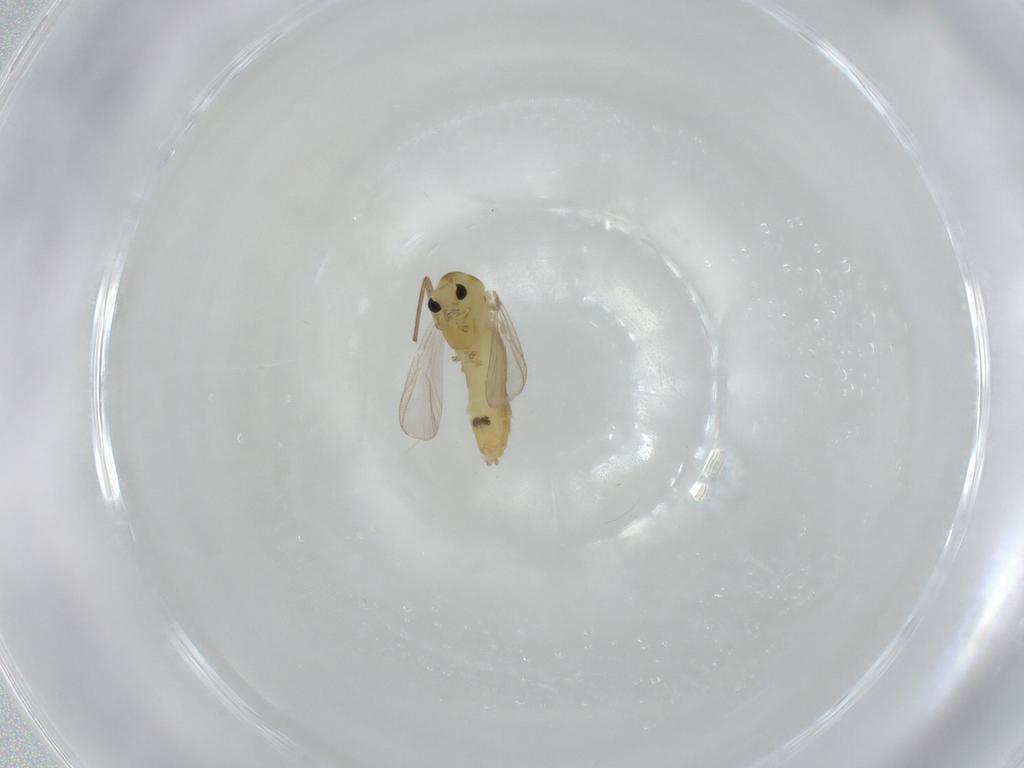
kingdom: Animalia
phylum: Arthropoda
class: Insecta
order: Diptera
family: Chironomidae
